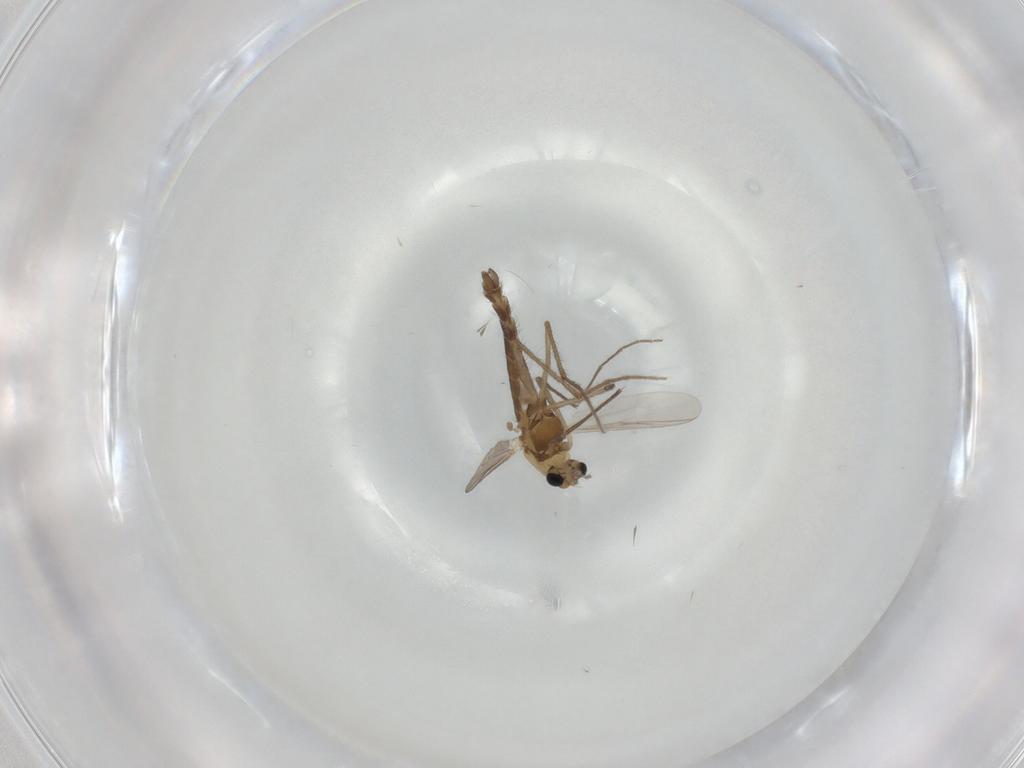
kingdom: Animalia
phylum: Arthropoda
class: Insecta
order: Diptera
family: Chironomidae
